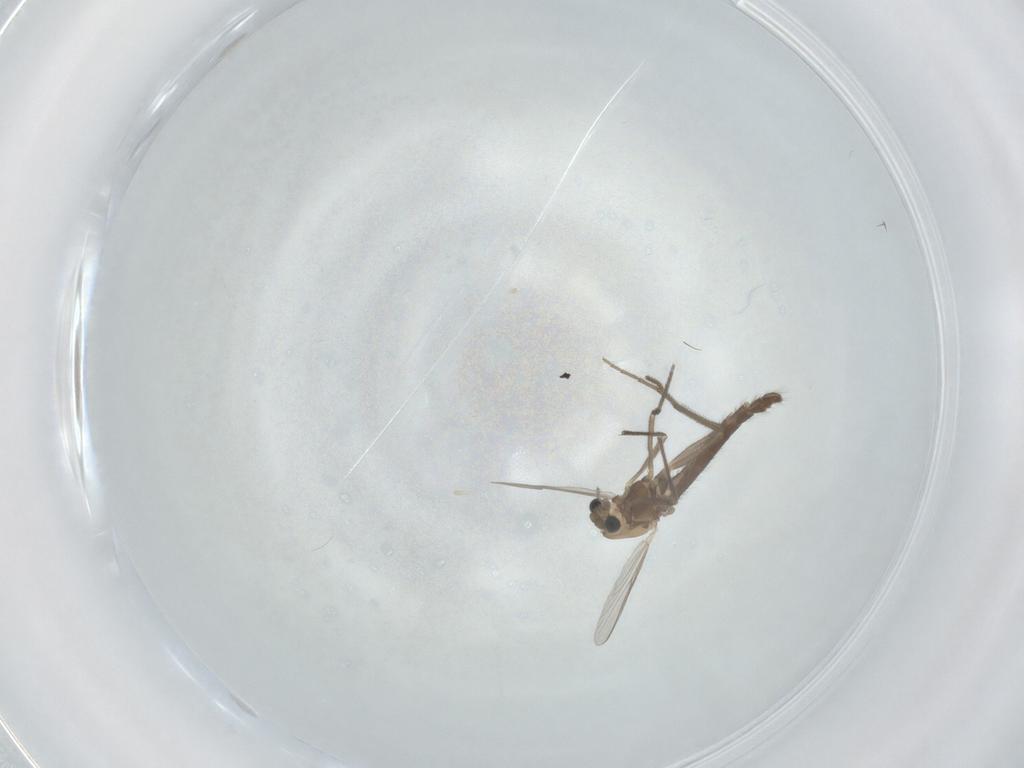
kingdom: Animalia
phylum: Arthropoda
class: Insecta
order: Diptera
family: Chironomidae
